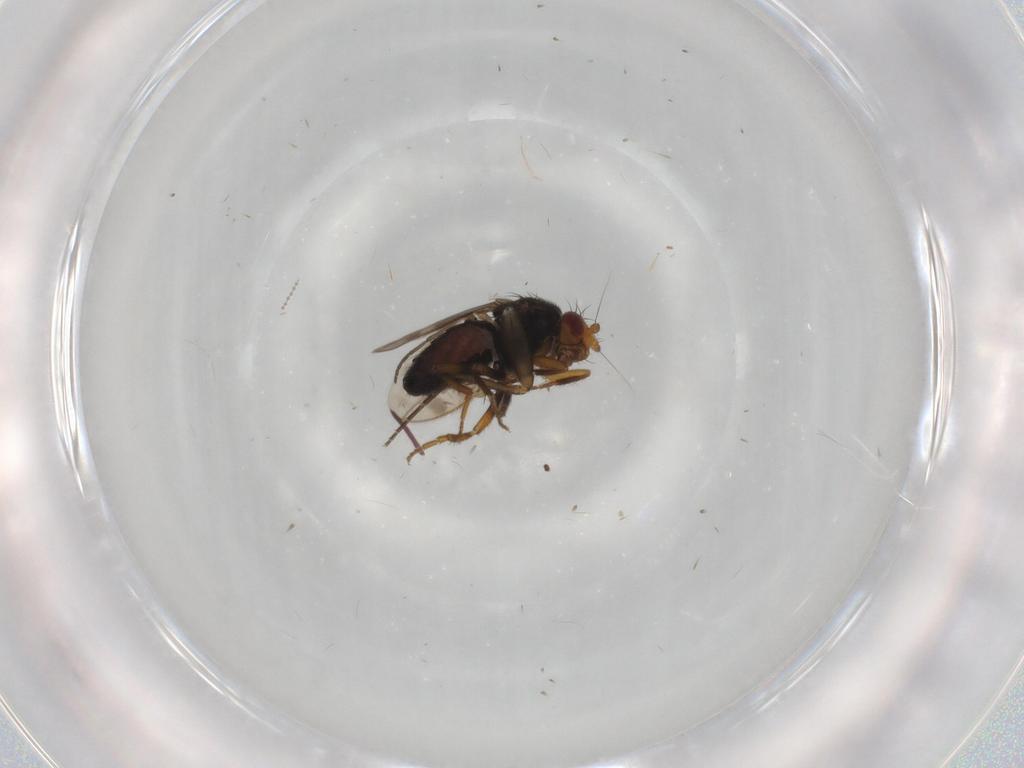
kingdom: Animalia
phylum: Arthropoda
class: Insecta
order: Diptera
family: Sphaeroceridae
